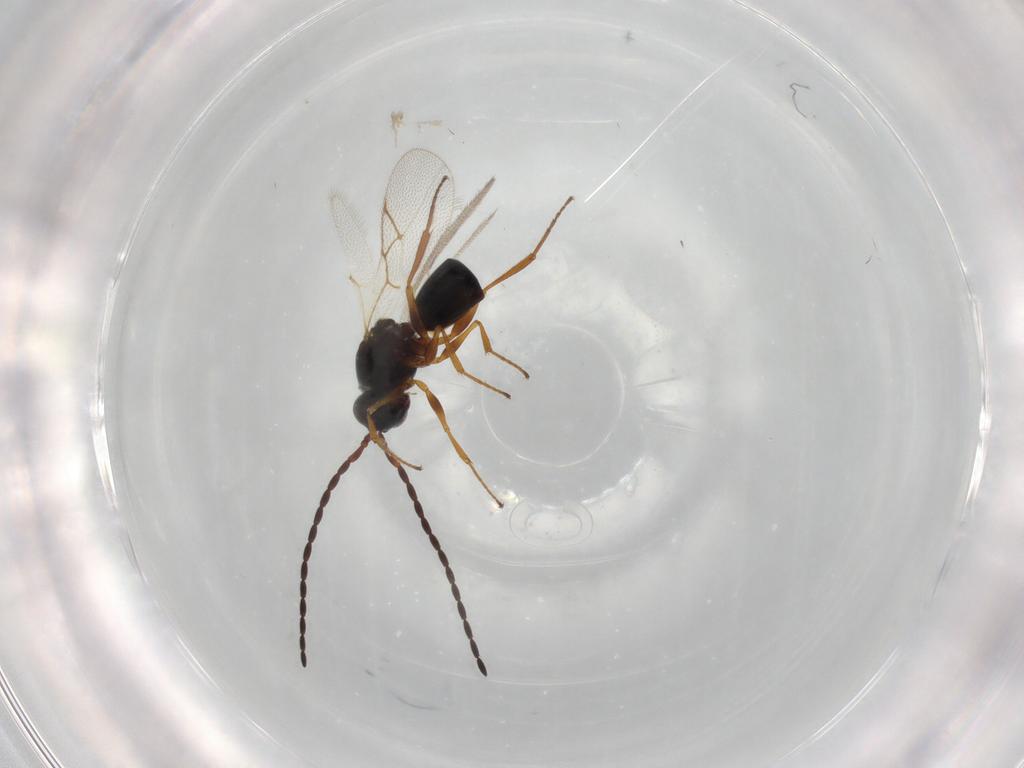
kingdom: Animalia
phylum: Arthropoda
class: Insecta
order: Hymenoptera
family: Figitidae
